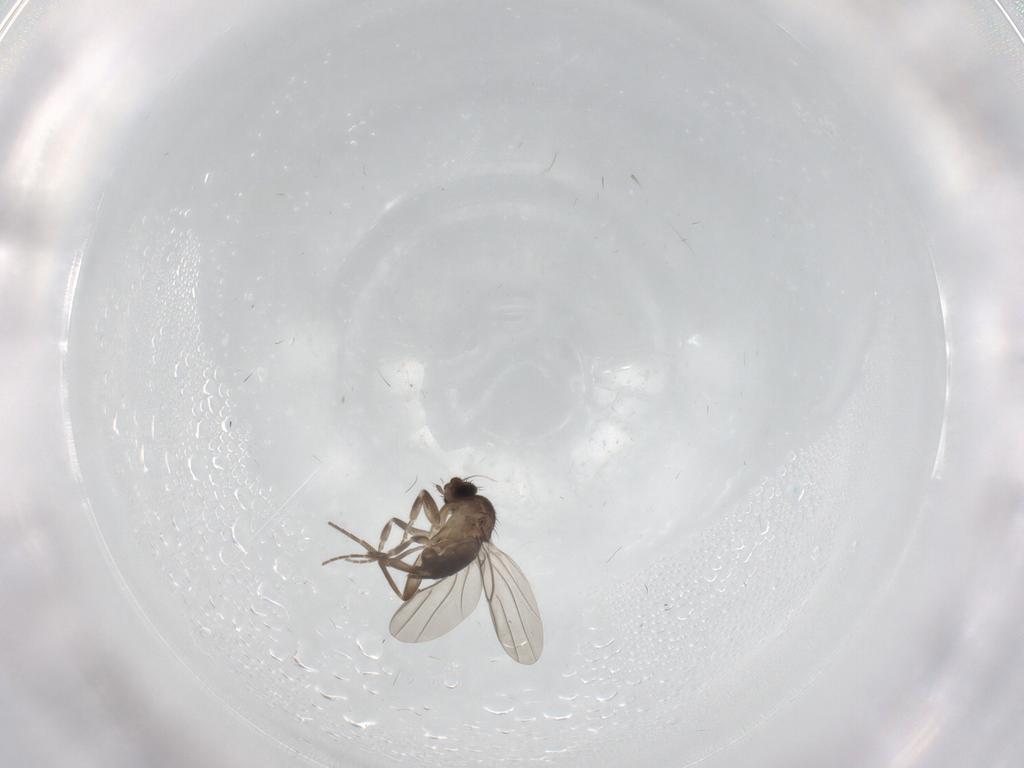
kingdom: Animalia
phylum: Arthropoda
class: Insecta
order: Diptera
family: Phoridae
